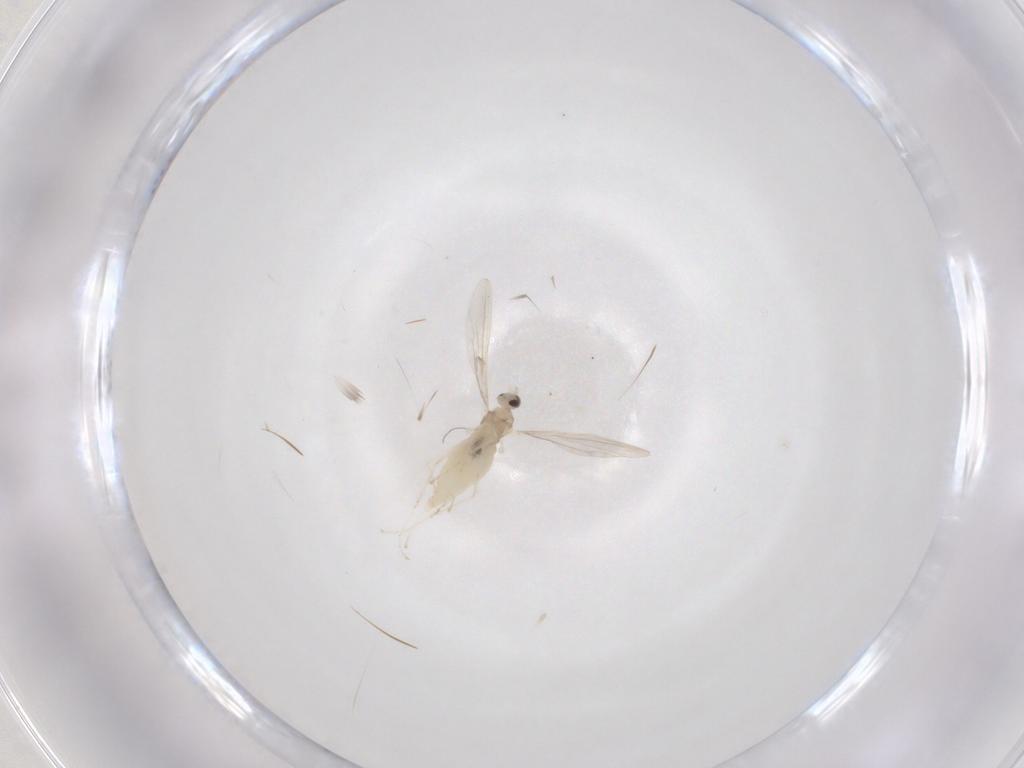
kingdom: Animalia
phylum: Arthropoda
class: Insecta
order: Diptera
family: Cecidomyiidae
